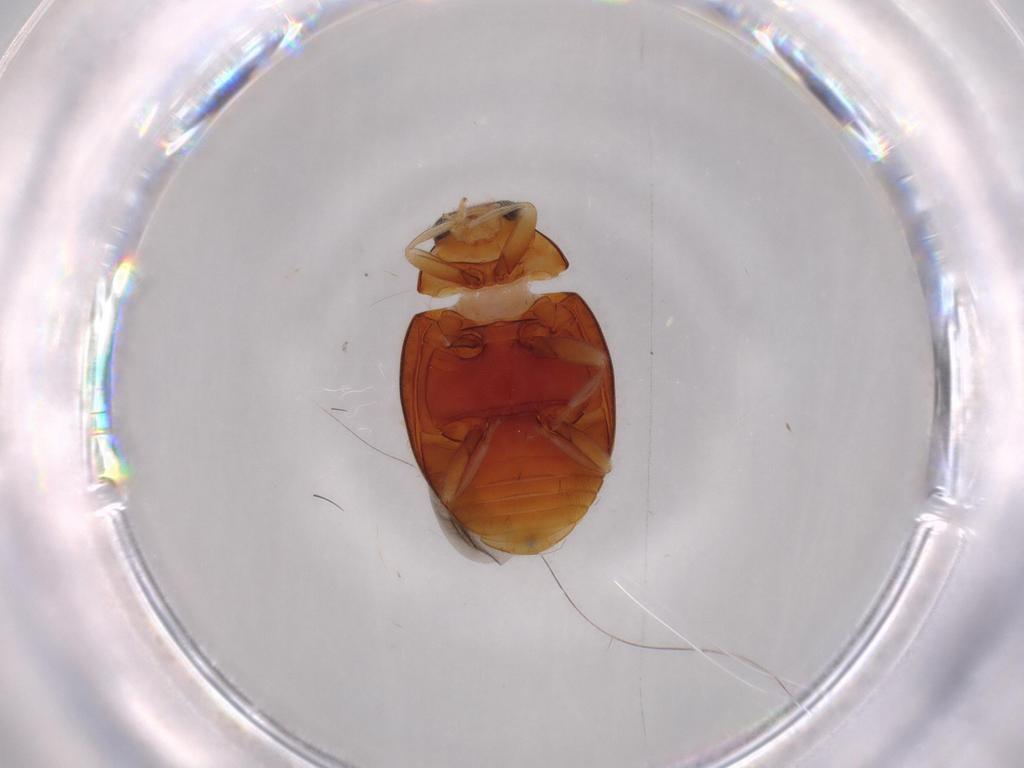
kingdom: Animalia
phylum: Arthropoda
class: Insecta
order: Coleoptera
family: Coccinellidae
